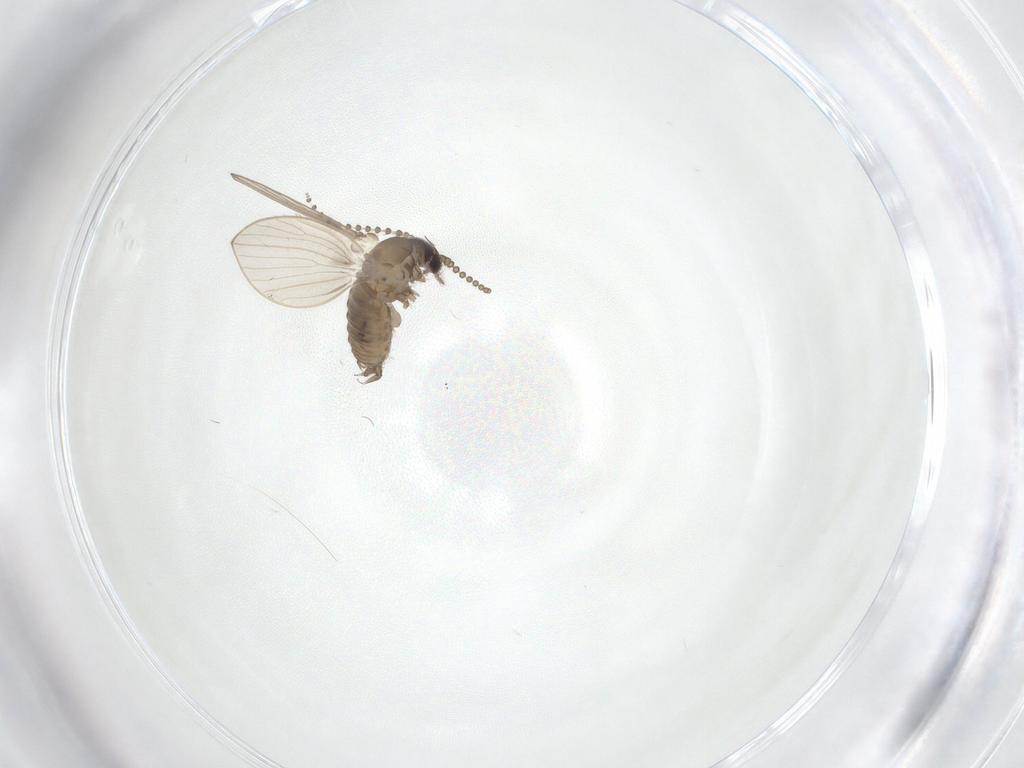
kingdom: Animalia
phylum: Arthropoda
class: Insecta
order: Diptera
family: Psychodidae
